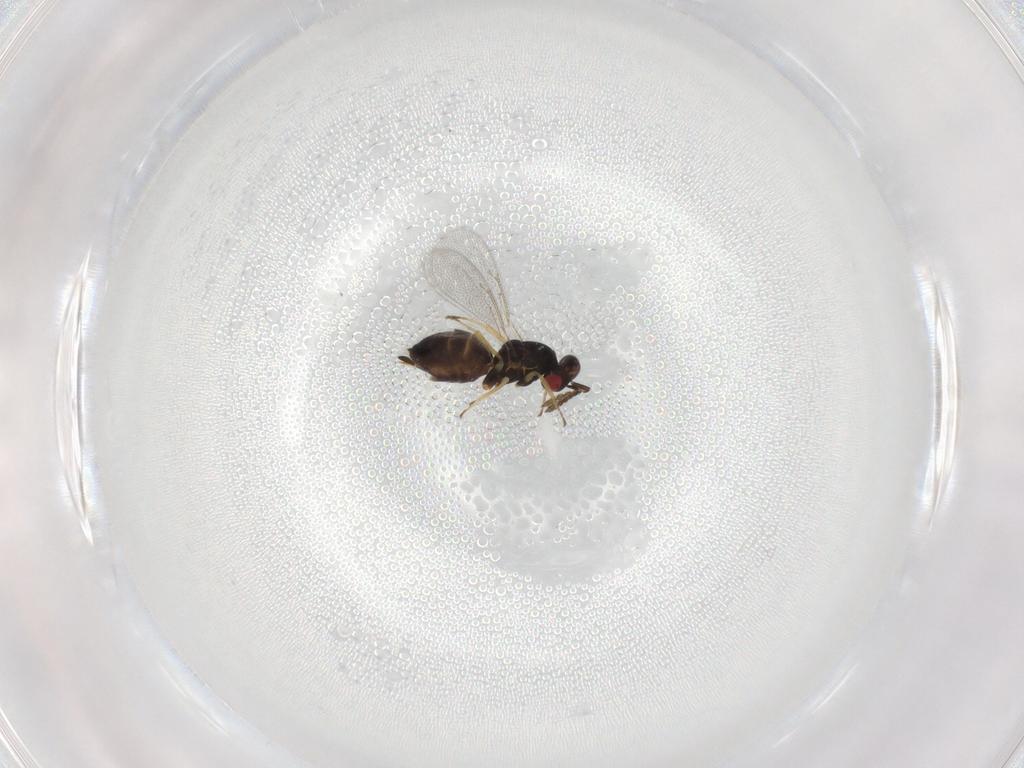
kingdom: Animalia
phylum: Arthropoda
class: Insecta
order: Hymenoptera
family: Eulophidae
